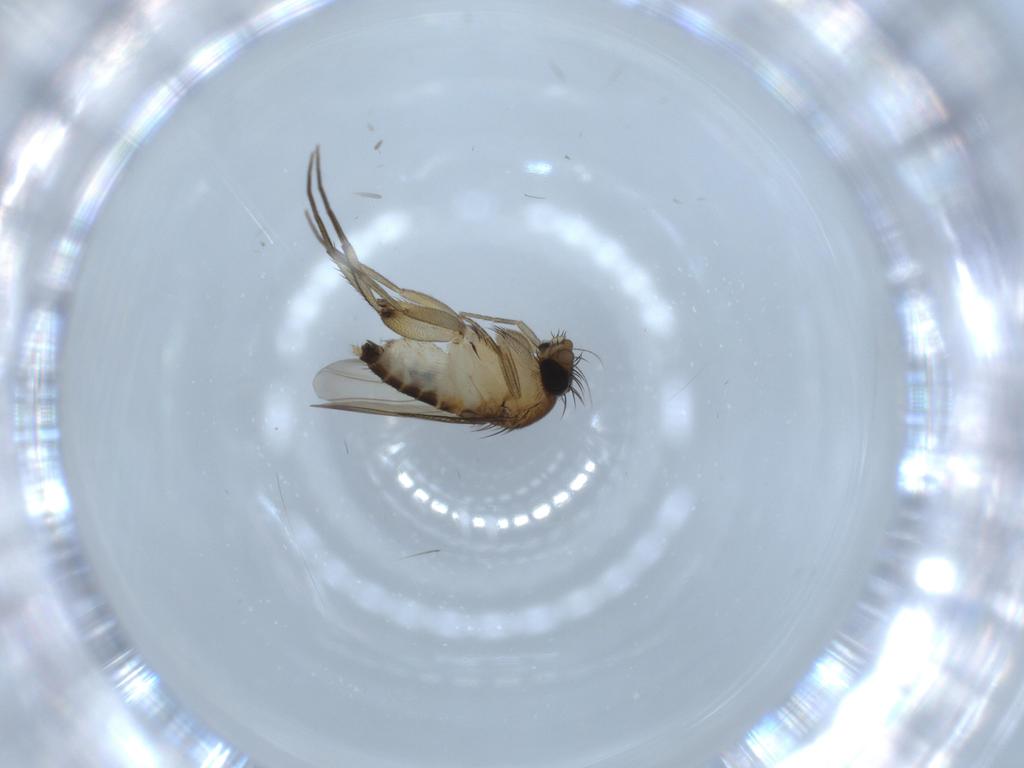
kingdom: Animalia
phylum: Arthropoda
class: Insecta
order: Diptera
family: Phoridae
